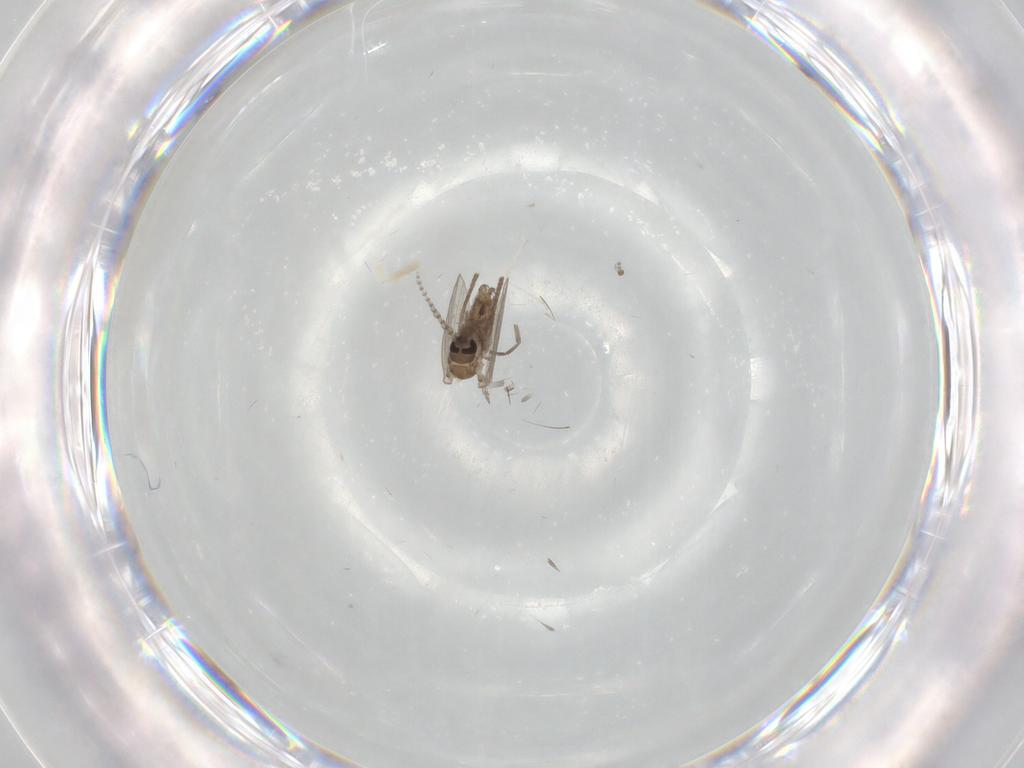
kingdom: Animalia
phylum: Arthropoda
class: Insecta
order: Diptera
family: Psychodidae
